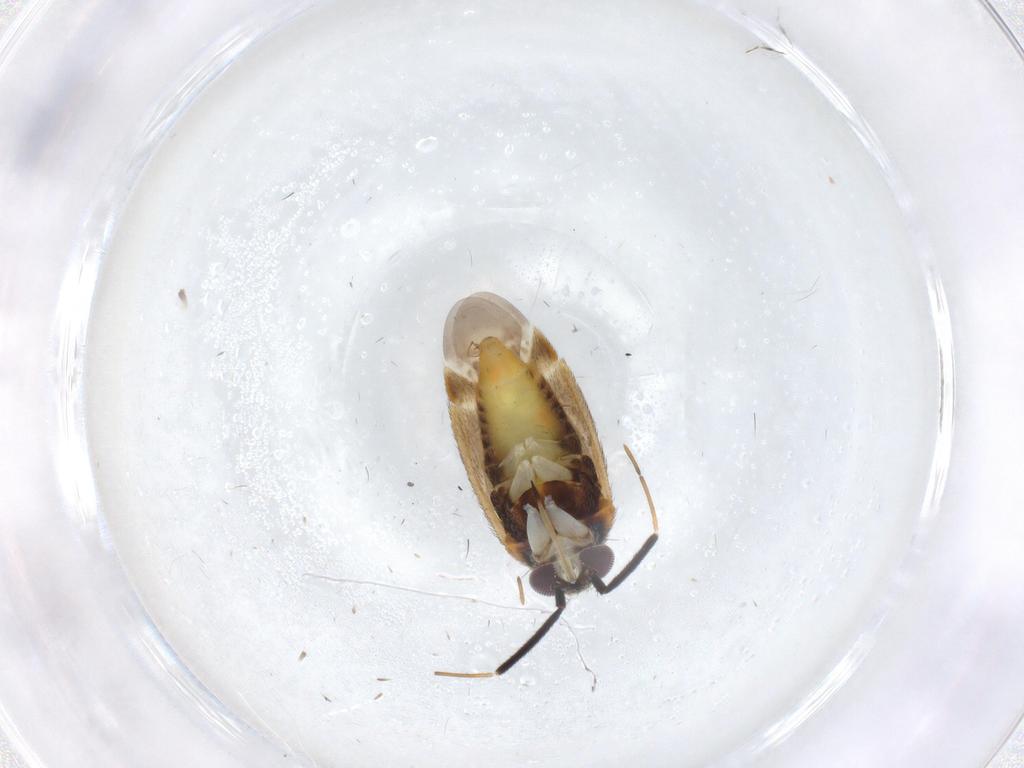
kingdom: Animalia
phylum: Arthropoda
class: Insecta
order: Hemiptera
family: Miridae
